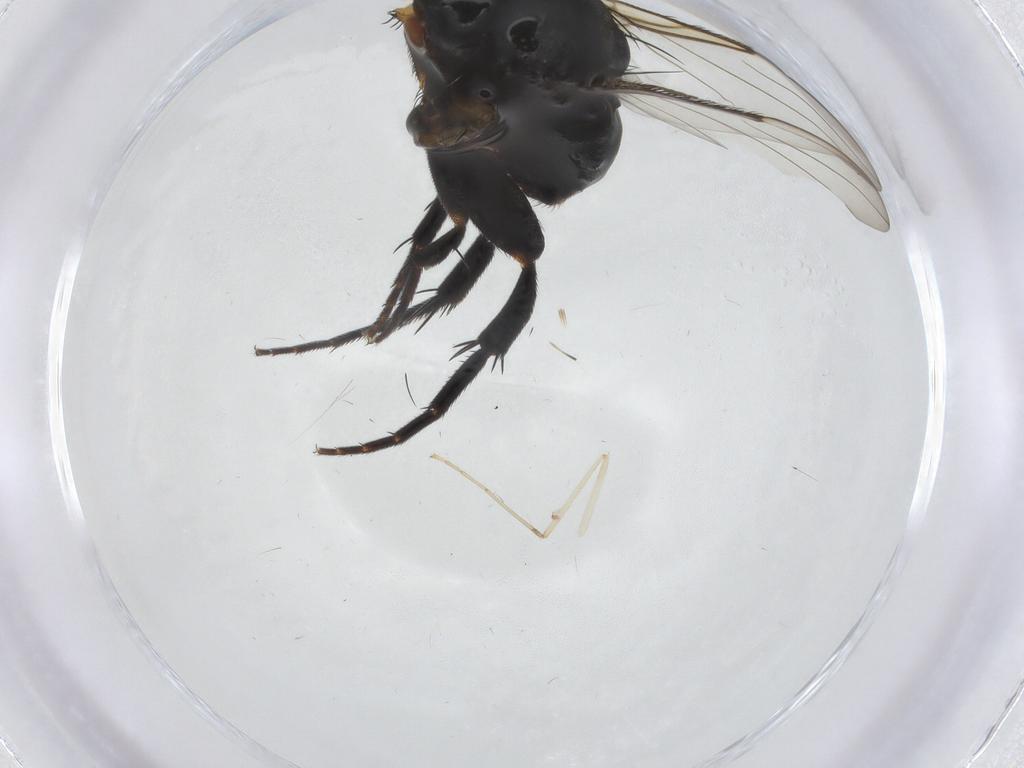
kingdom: Animalia
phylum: Arthropoda
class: Insecta
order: Diptera
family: Phoridae
